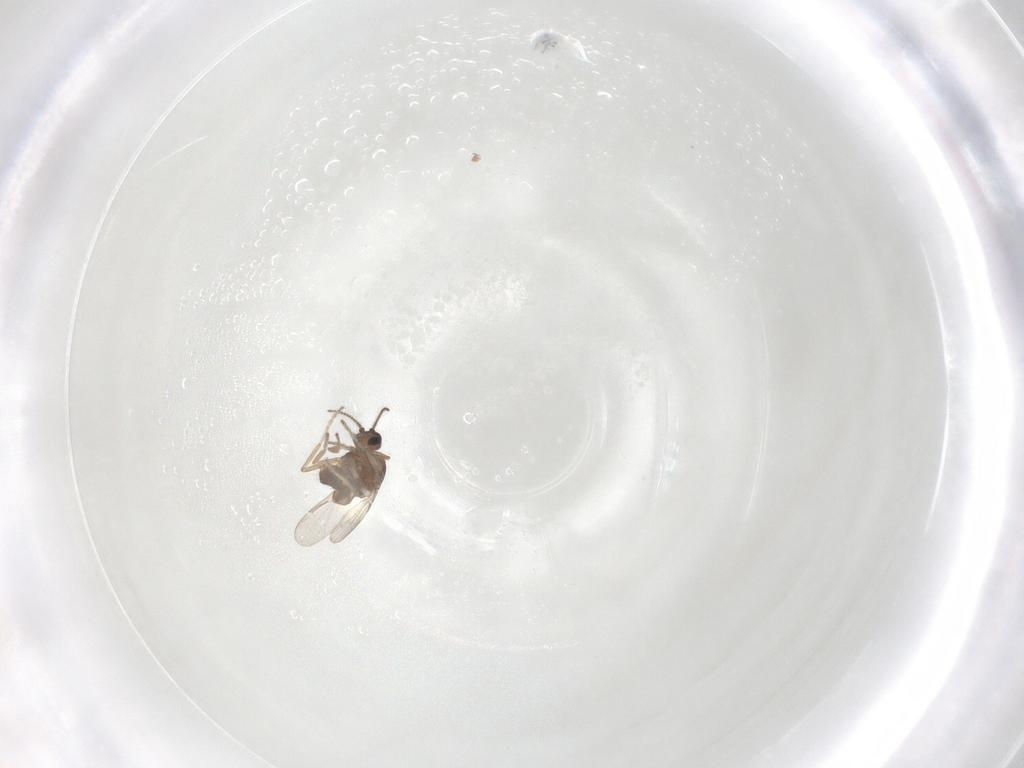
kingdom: Animalia
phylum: Arthropoda
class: Insecta
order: Diptera
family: Ceratopogonidae
